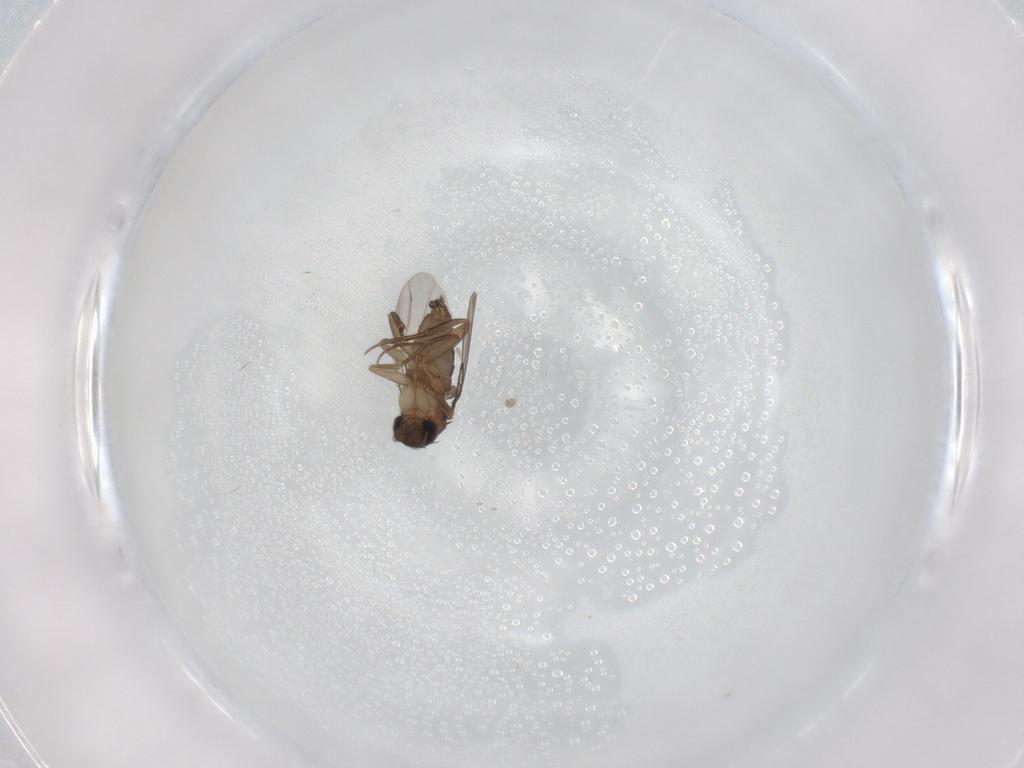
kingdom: Animalia
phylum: Arthropoda
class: Insecta
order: Diptera
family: Phoridae
